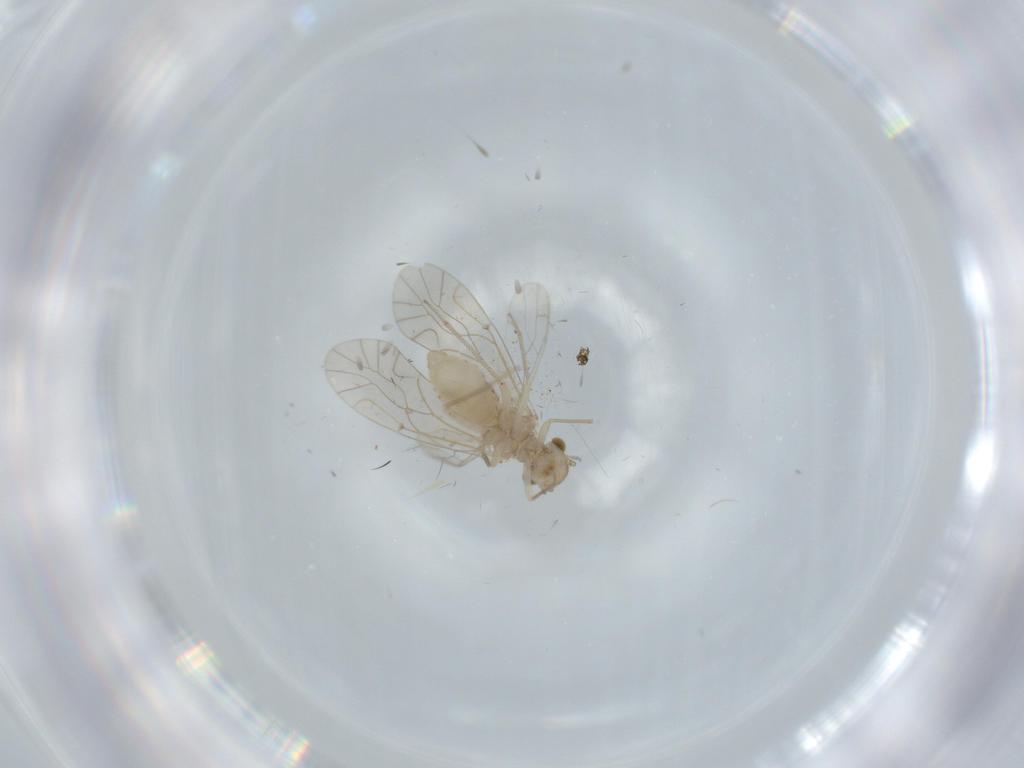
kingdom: Animalia
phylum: Arthropoda
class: Insecta
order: Psocodea
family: Lachesillidae
